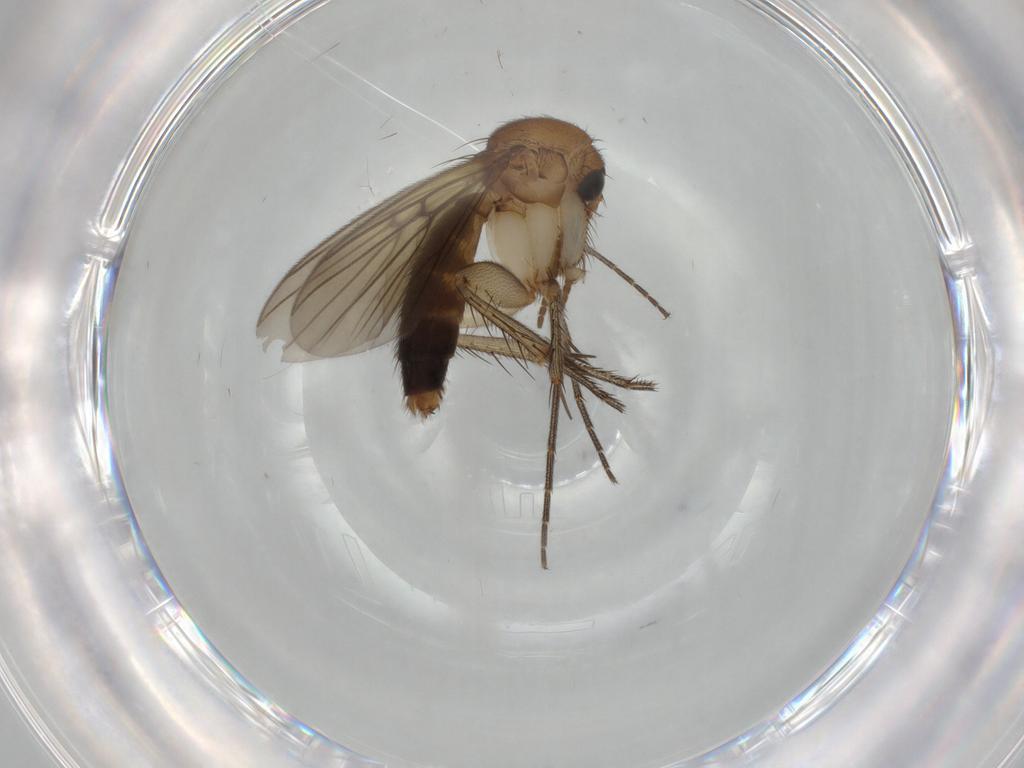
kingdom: Animalia
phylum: Arthropoda
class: Insecta
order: Diptera
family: Mycetophilidae
